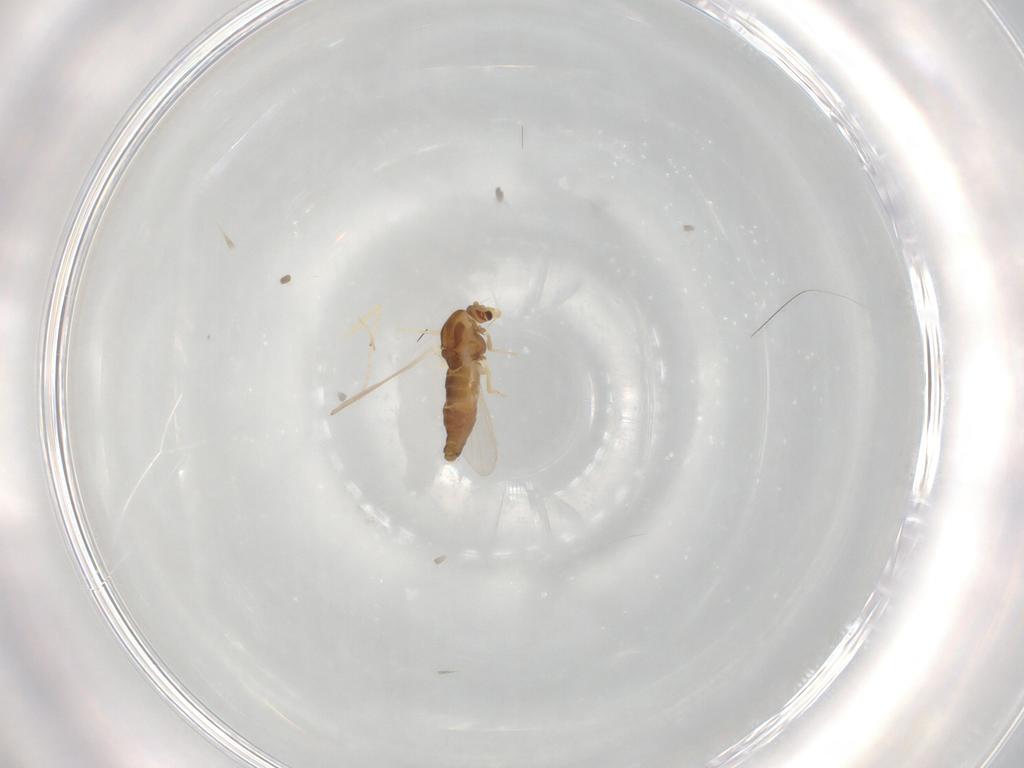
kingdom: Animalia
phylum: Arthropoda
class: Insecta
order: Diptera
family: Chironomidae
